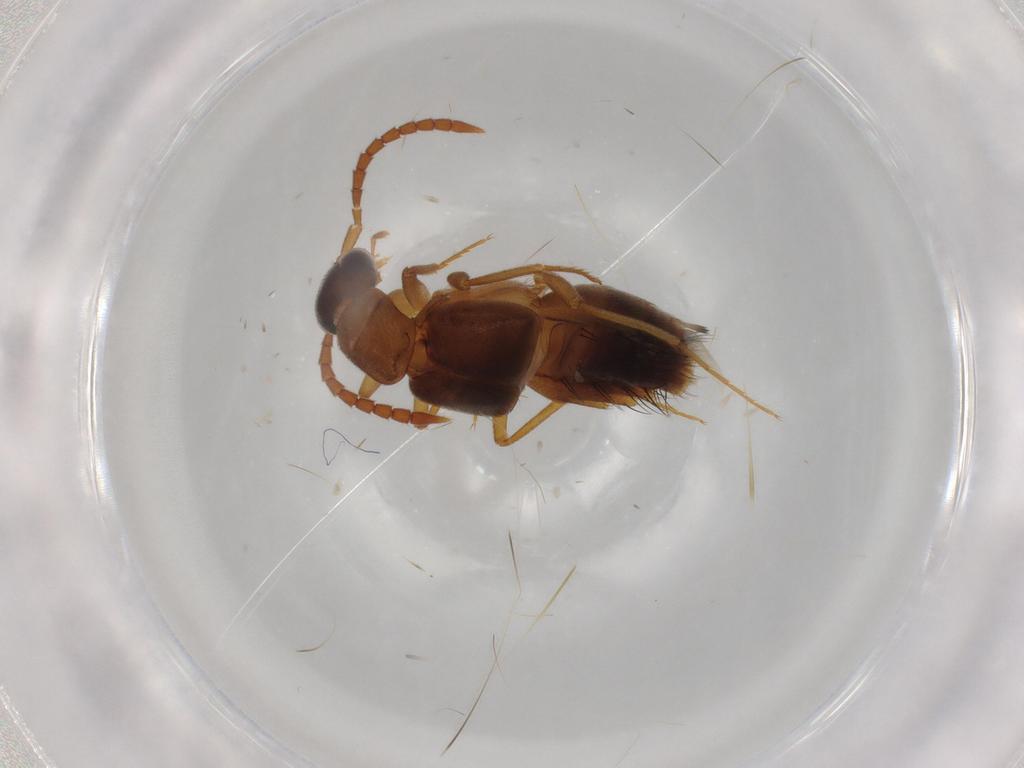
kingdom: Animalia
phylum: Arthropoda
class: Insecta
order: Coleoptera
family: Staphylinidae
